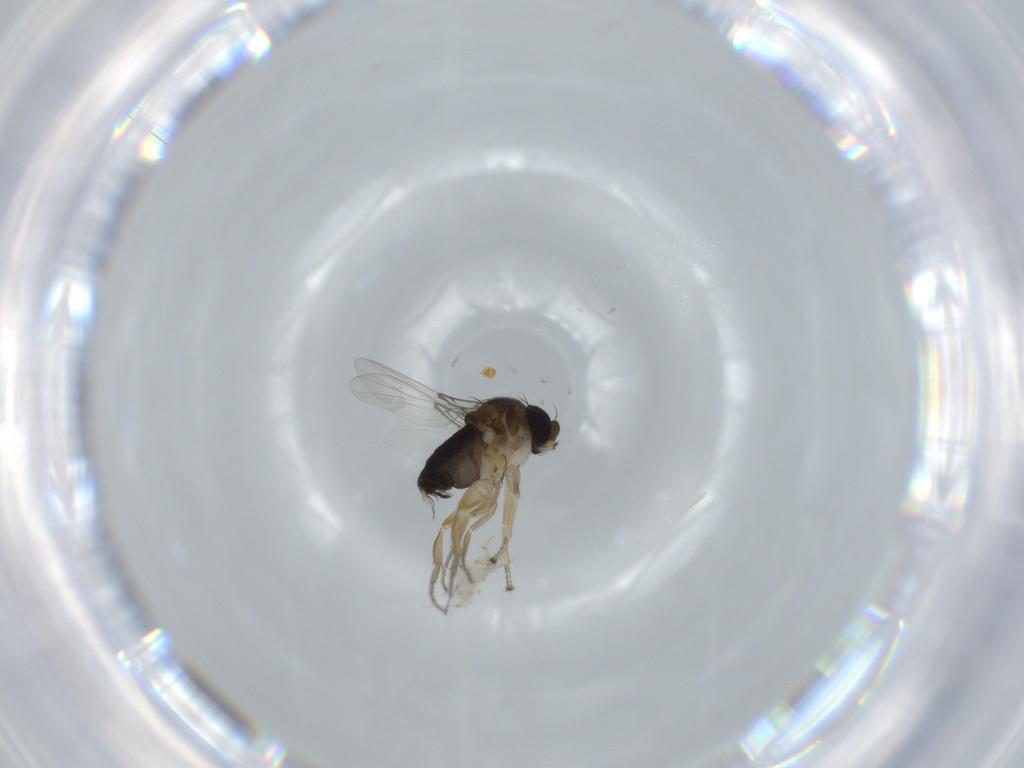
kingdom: Animalia
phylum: Arthropoda
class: Insecta
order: Diptera
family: Phoridae
